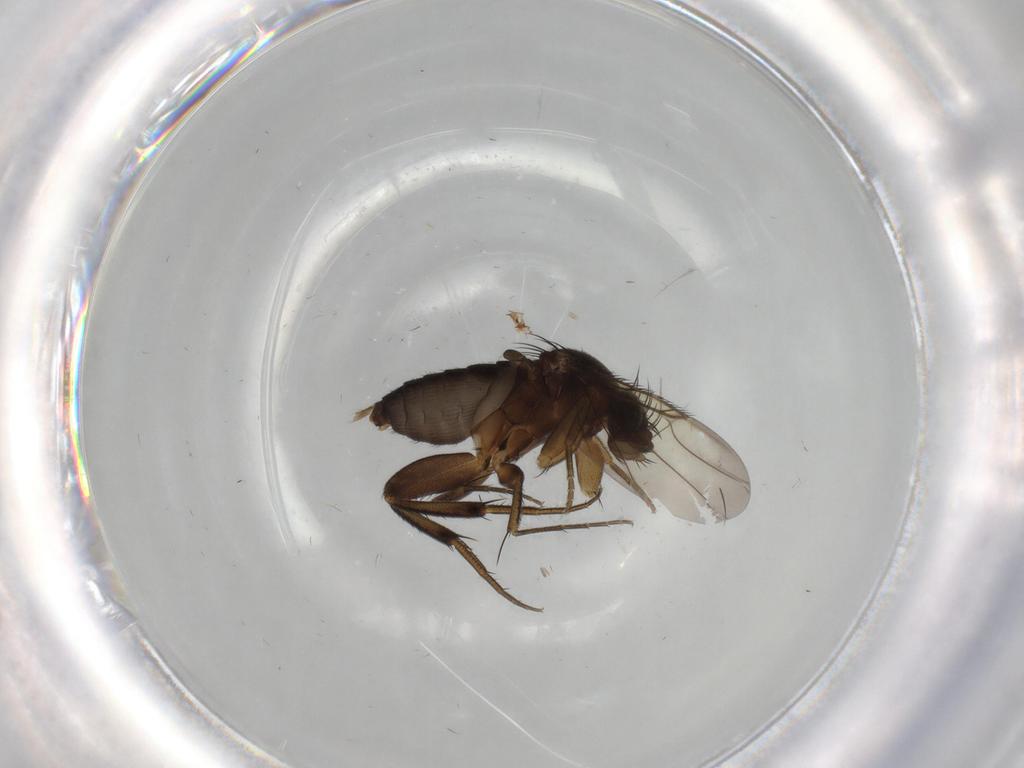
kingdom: Animalia
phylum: Arthropoda
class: Insecta
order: Diptera
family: Phoridae
